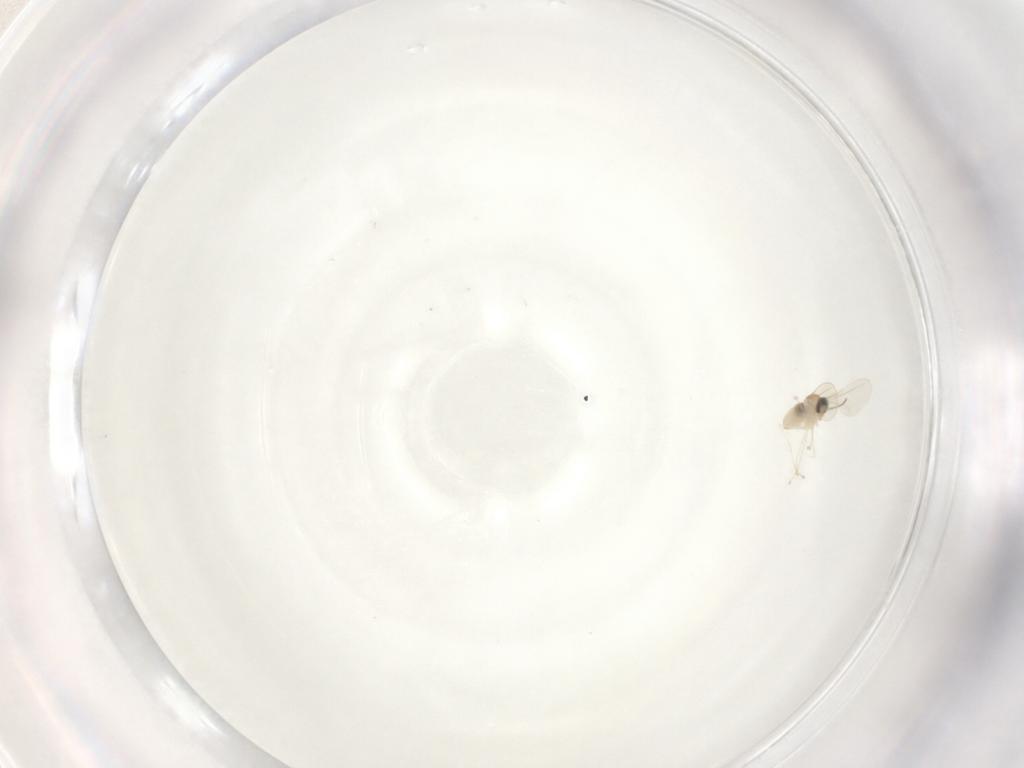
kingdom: Animalia
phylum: Arthropoda
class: Insecta
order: Diptera
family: Cecidomyiidae
